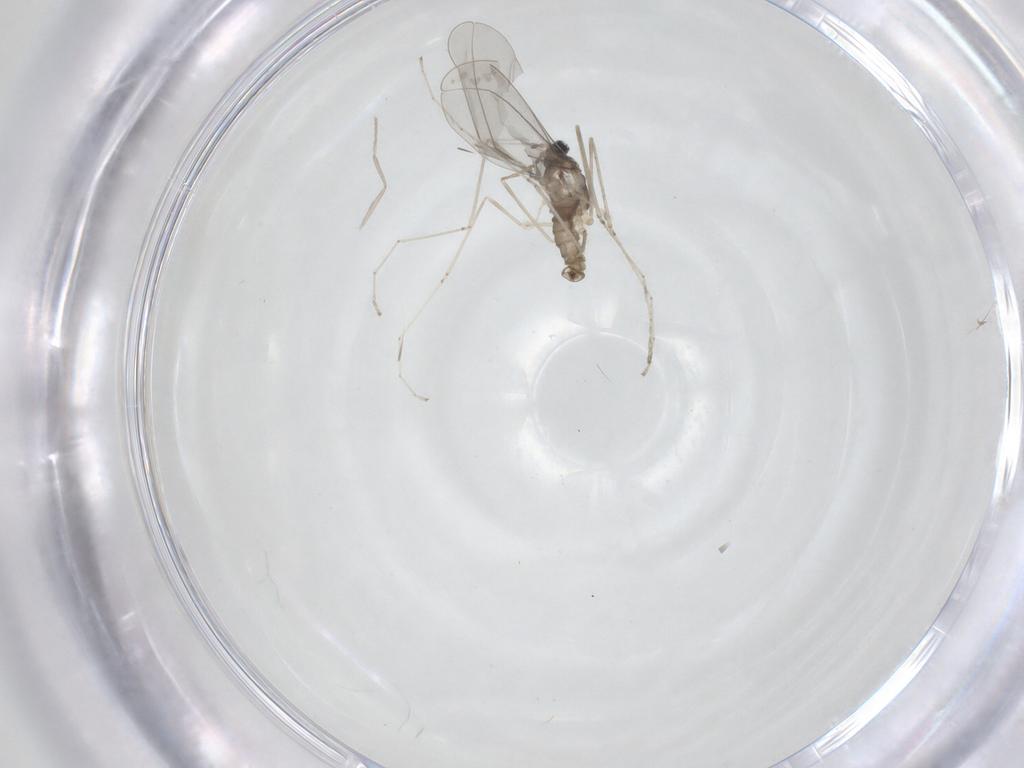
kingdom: Animalia
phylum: Arthropoda
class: Insecta
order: Diptera
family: Cecidomyiidae
